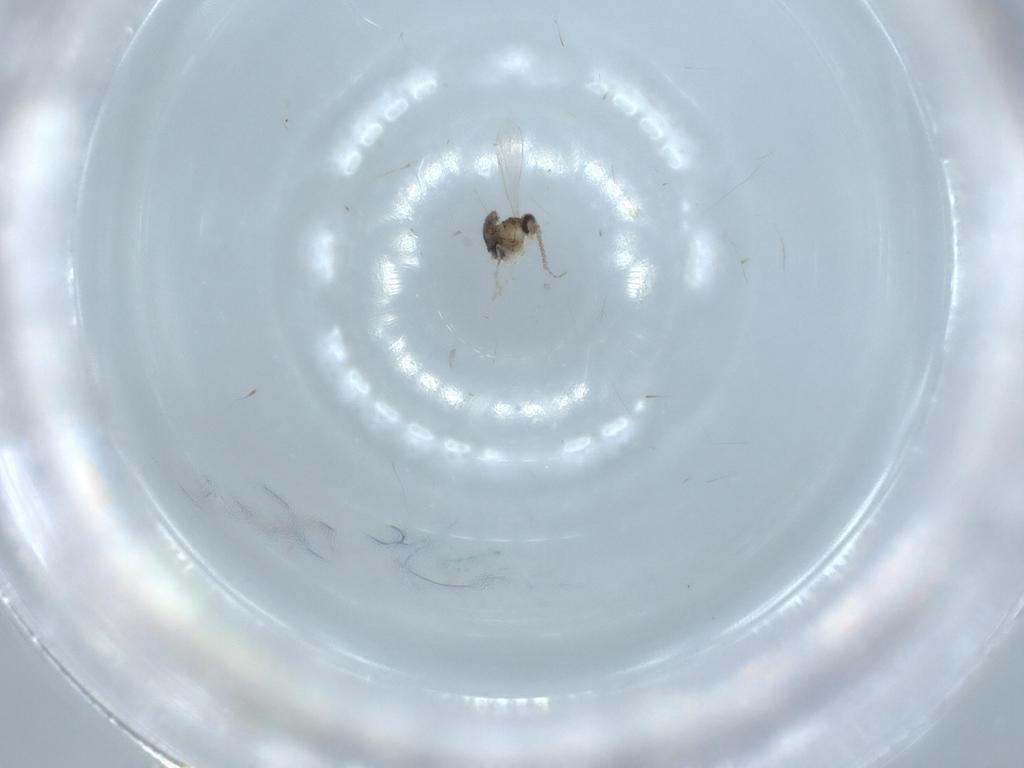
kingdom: Animalia
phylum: Arthropoda
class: Insecta
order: Diptera
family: Cecidomyiidae
